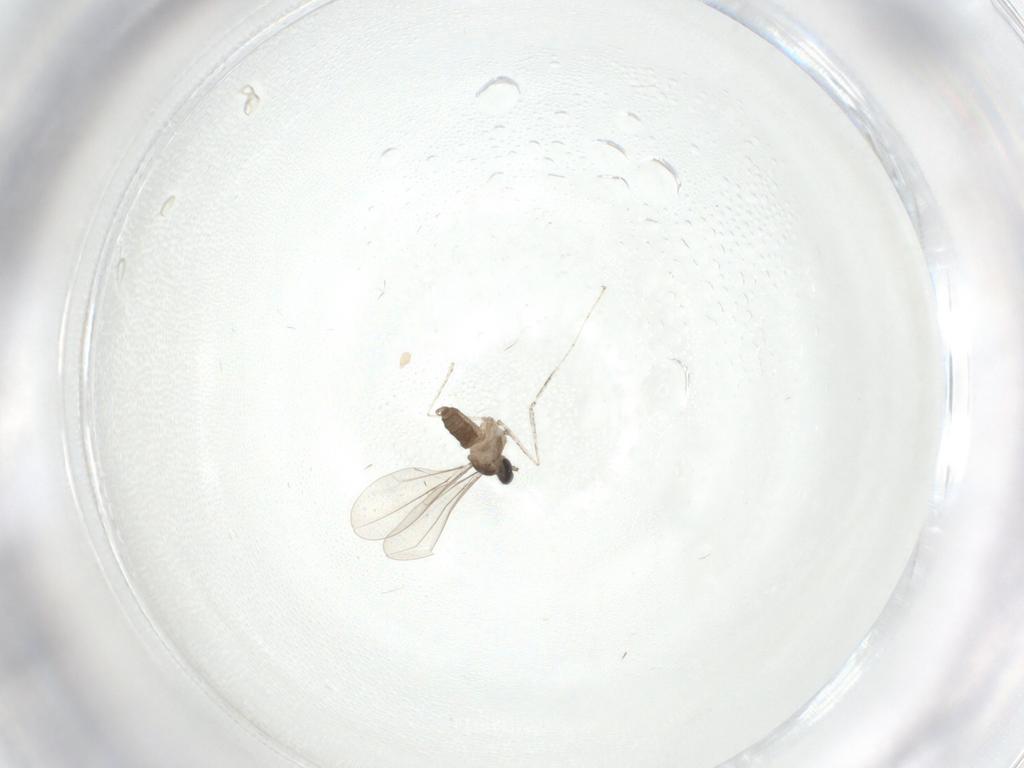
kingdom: Animalia
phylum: Arthropoda
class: Insecta
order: Diptera
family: Cecidomyiidae
